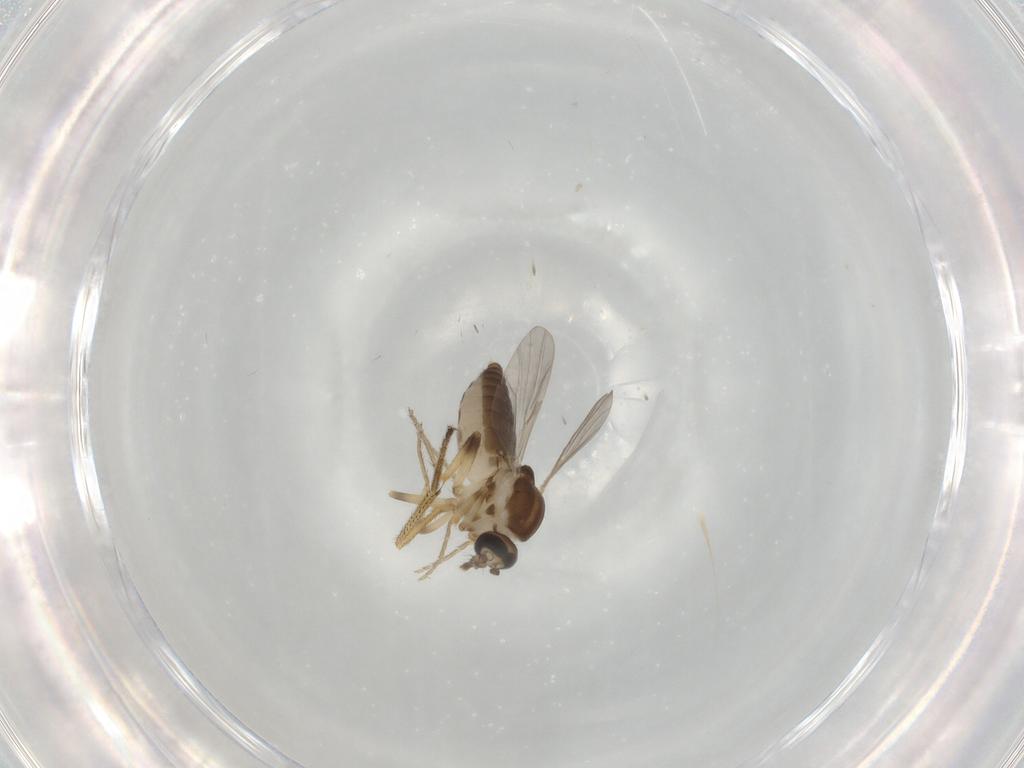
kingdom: Animalia
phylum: Arthropoda
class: Insecta
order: Diptera
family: Ceratopogonidae
